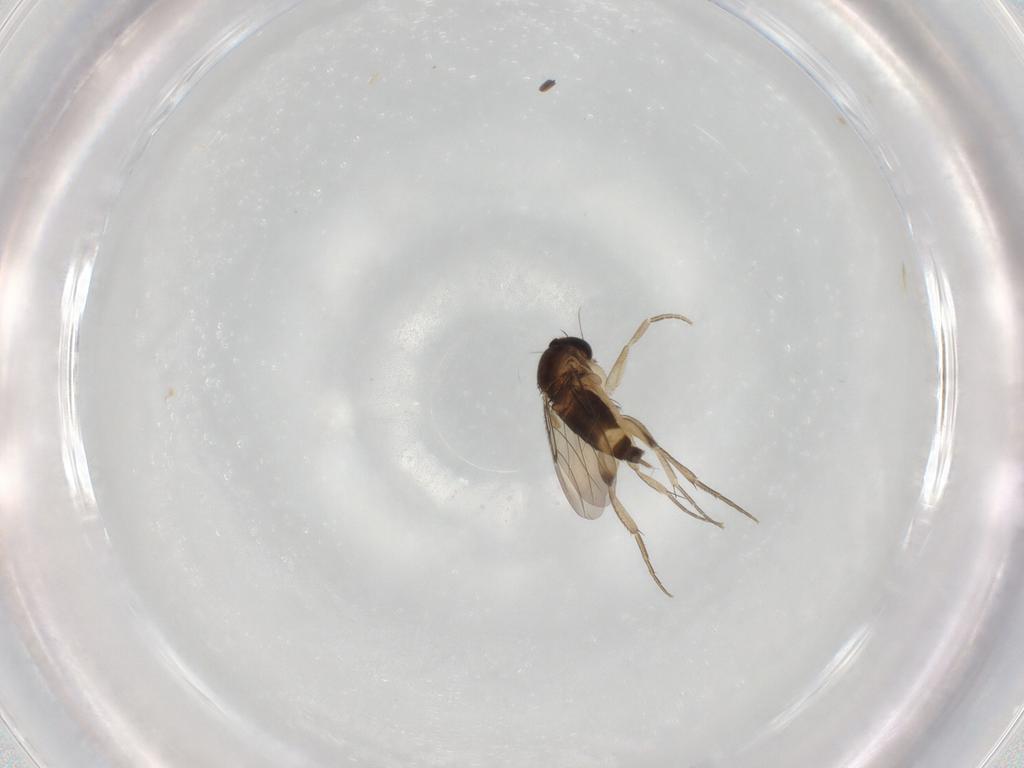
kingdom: Animalia
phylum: Arthropoda
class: Insecta
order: Diptera
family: Phoridae
